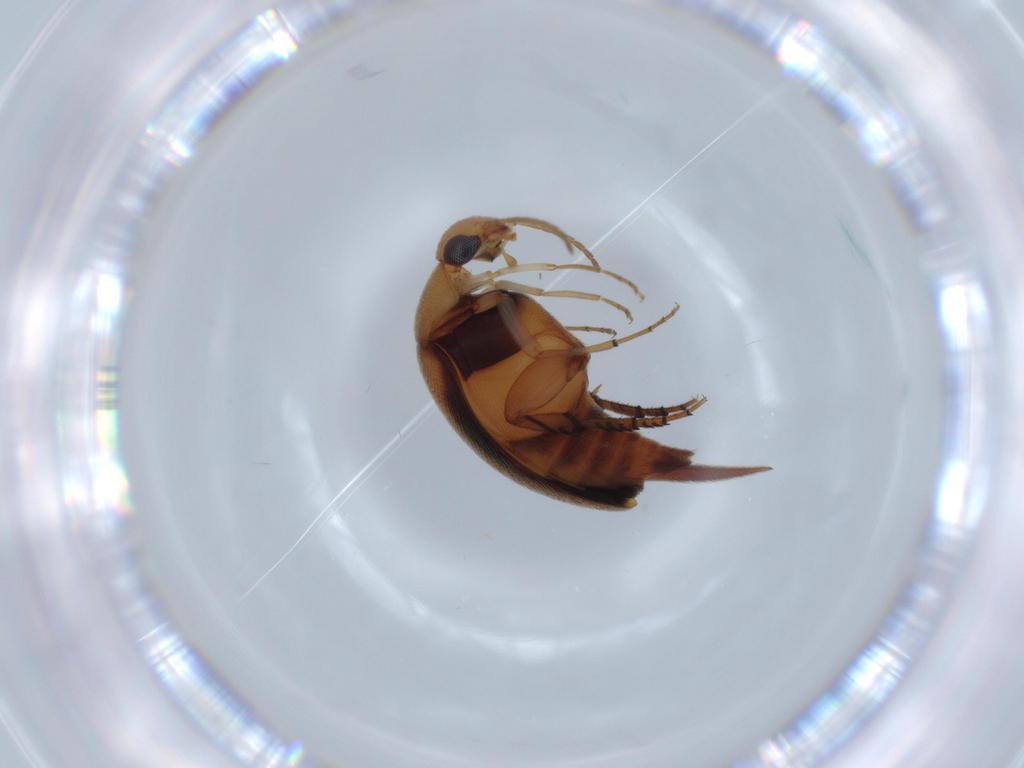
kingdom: Animalia
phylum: Arthropoda
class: Insecta
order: Coleoptera
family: Mordellidae
